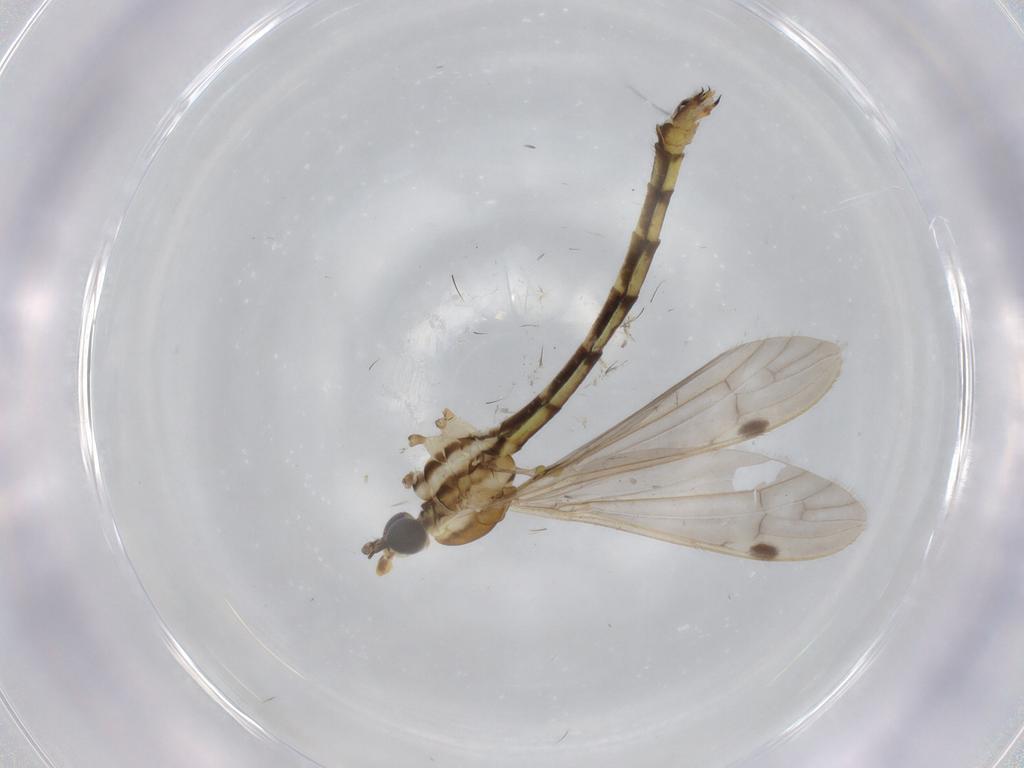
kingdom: Animalia
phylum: Arthropoda
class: Insecta
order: Diptera
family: Limoniidae
